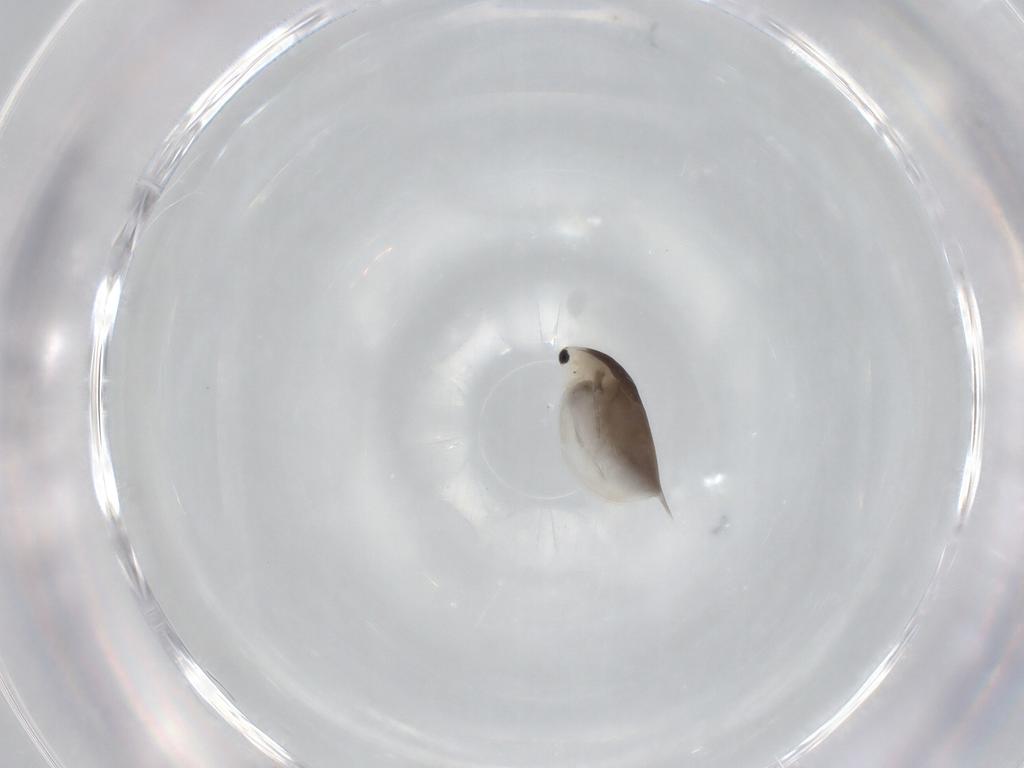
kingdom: Animalia
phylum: Arthropoda
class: Branchiopoda
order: Diplostraca
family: Daphniidae
